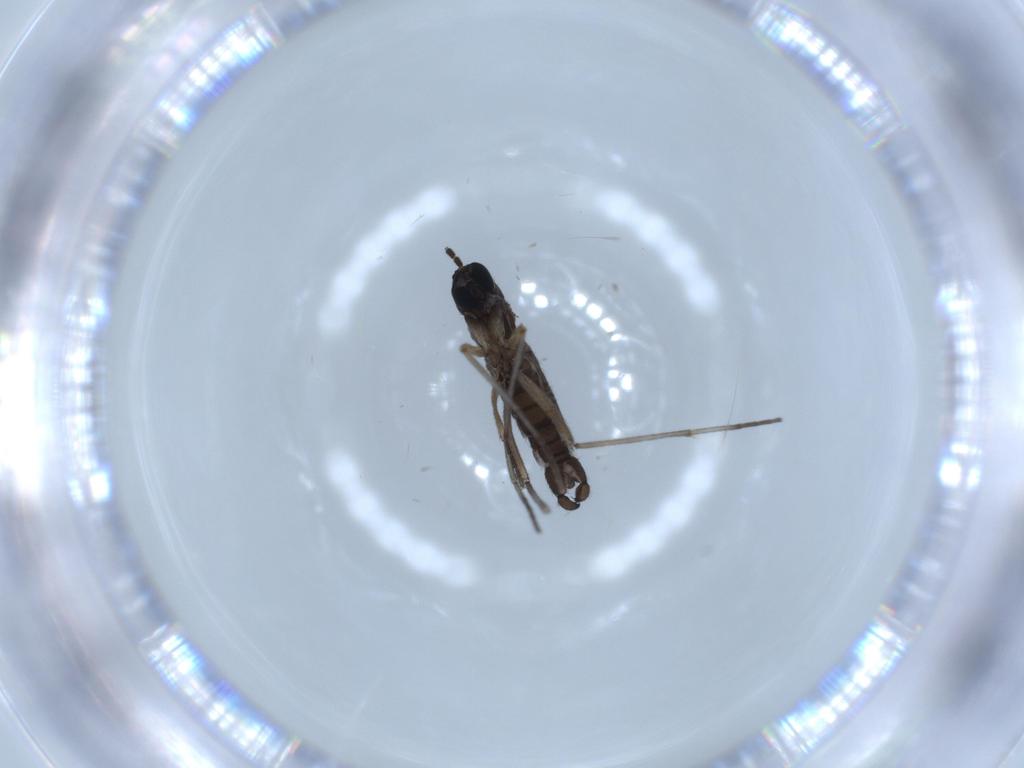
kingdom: Animalia
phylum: Arthropoda
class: Insecta
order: Diptera
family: Sciaridae
